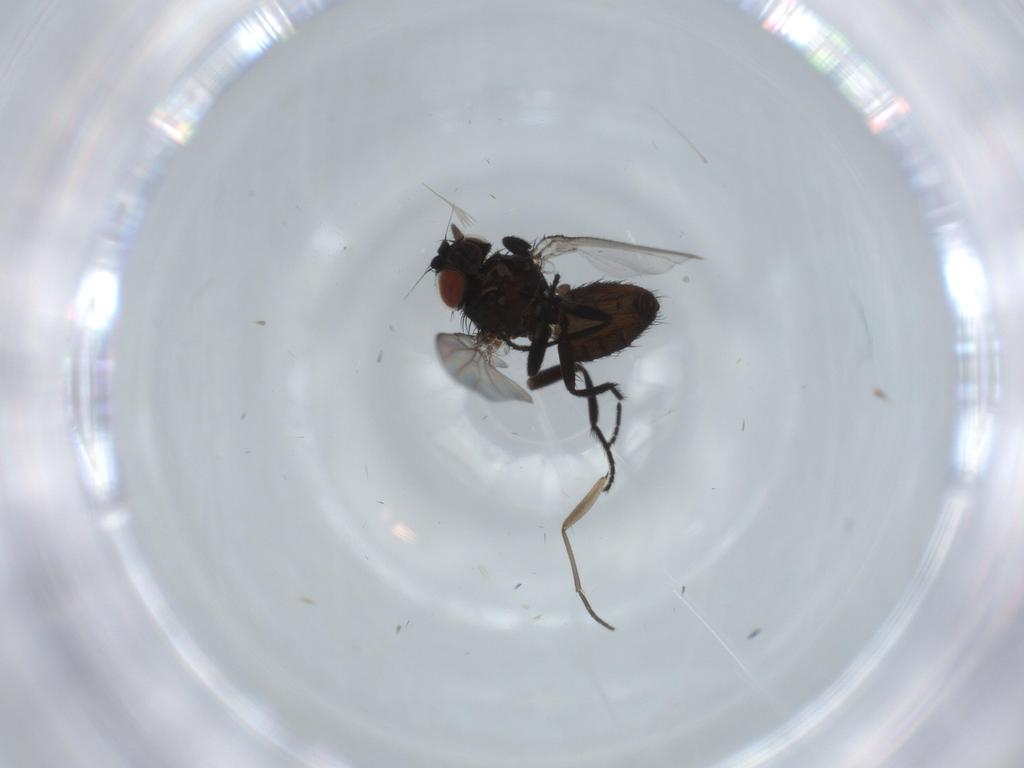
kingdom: Animalia
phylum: Arthropoda
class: Insecta
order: Diptera
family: Sciaridae
